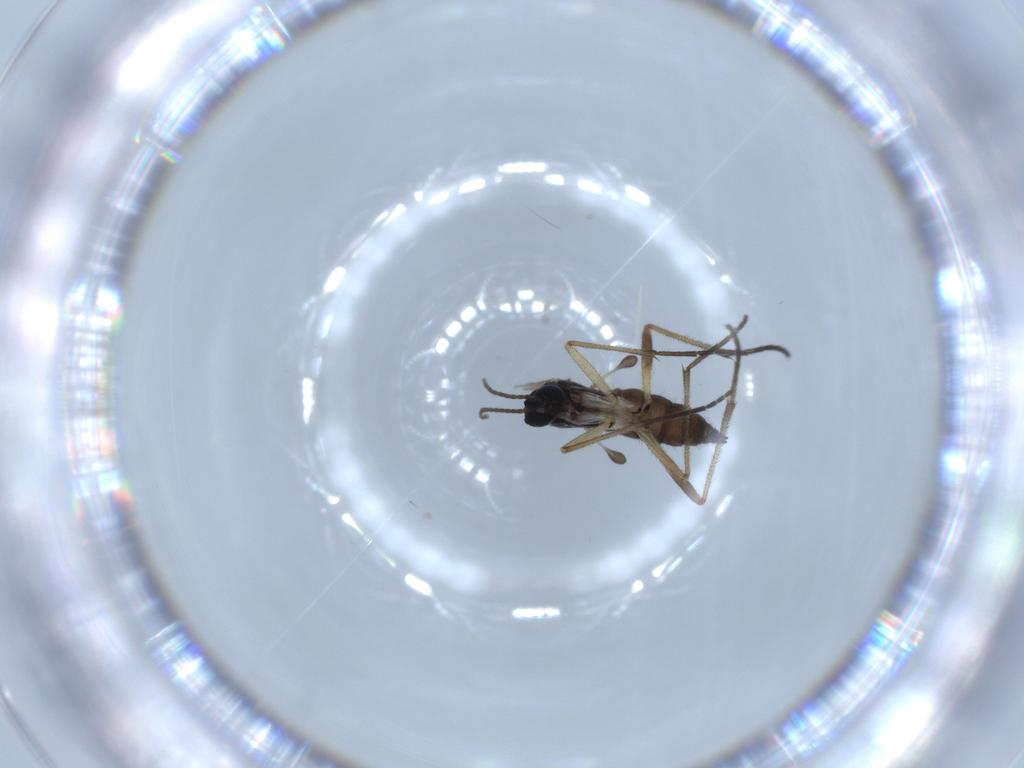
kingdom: Animalia
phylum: Arthropoda
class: Insecta
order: Diptera
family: Sciaridae
